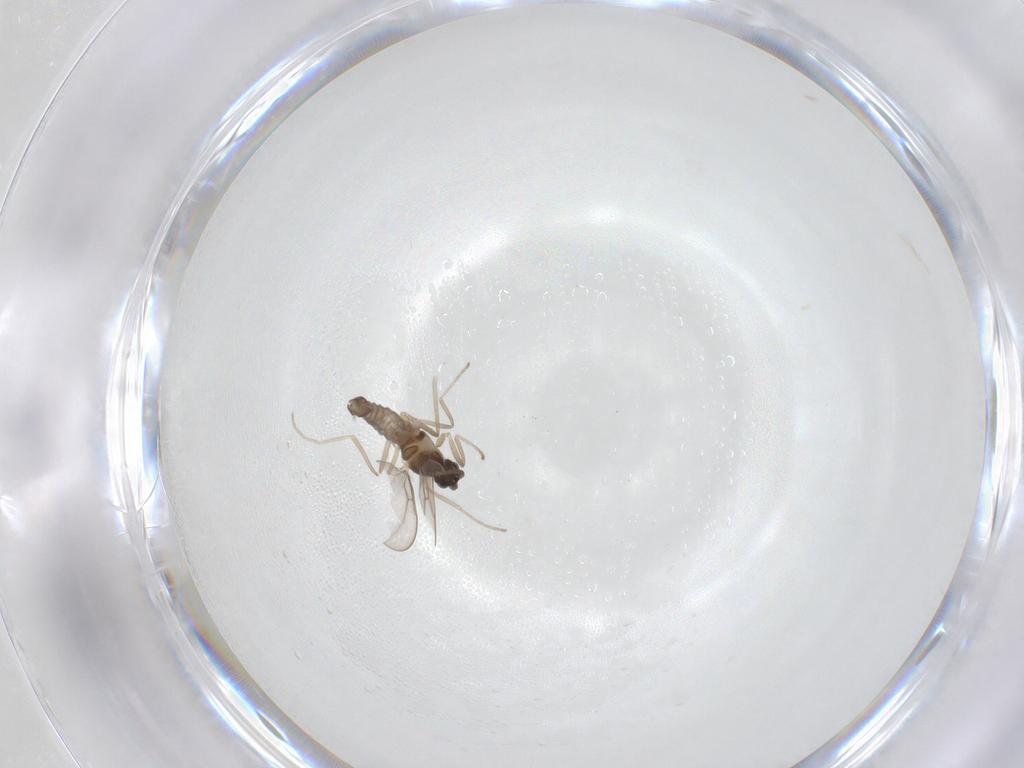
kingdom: Animalia
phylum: Arthropoda
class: Insecta
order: Diptera
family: Cecidomyiidae
